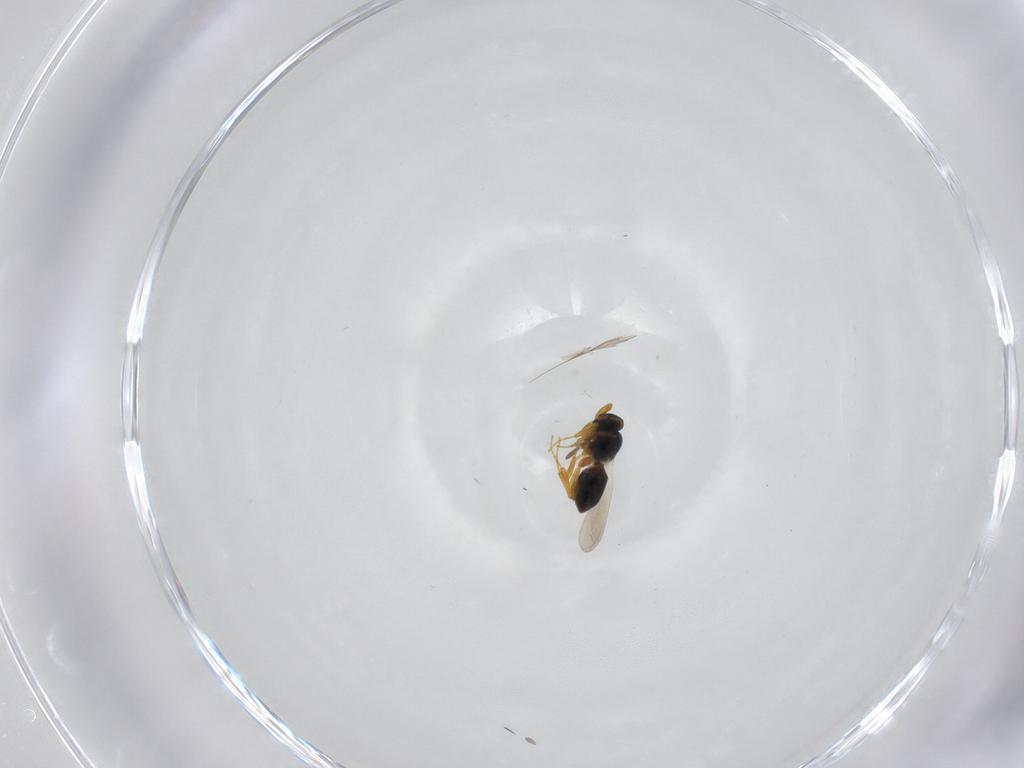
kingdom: Animalia
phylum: Arthropoda
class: Insecta
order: Hymenoptera
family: Platygastridae
